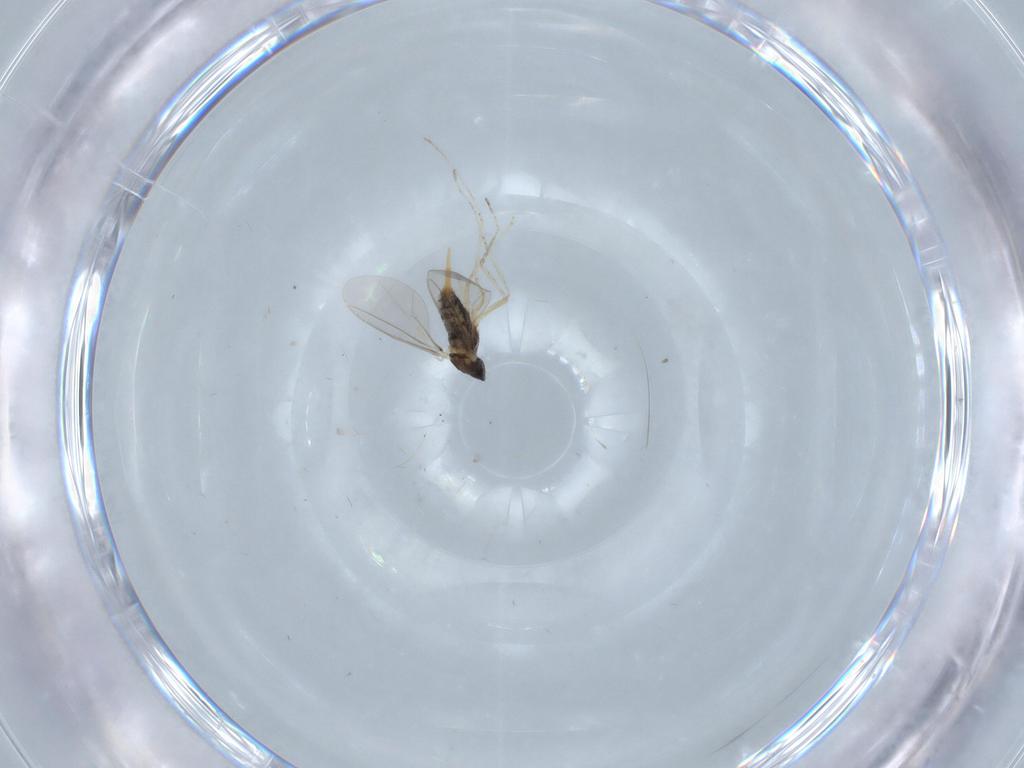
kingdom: Animalia
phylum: Arthropoda
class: Insecta
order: Diptera
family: Cecidomyiidae
